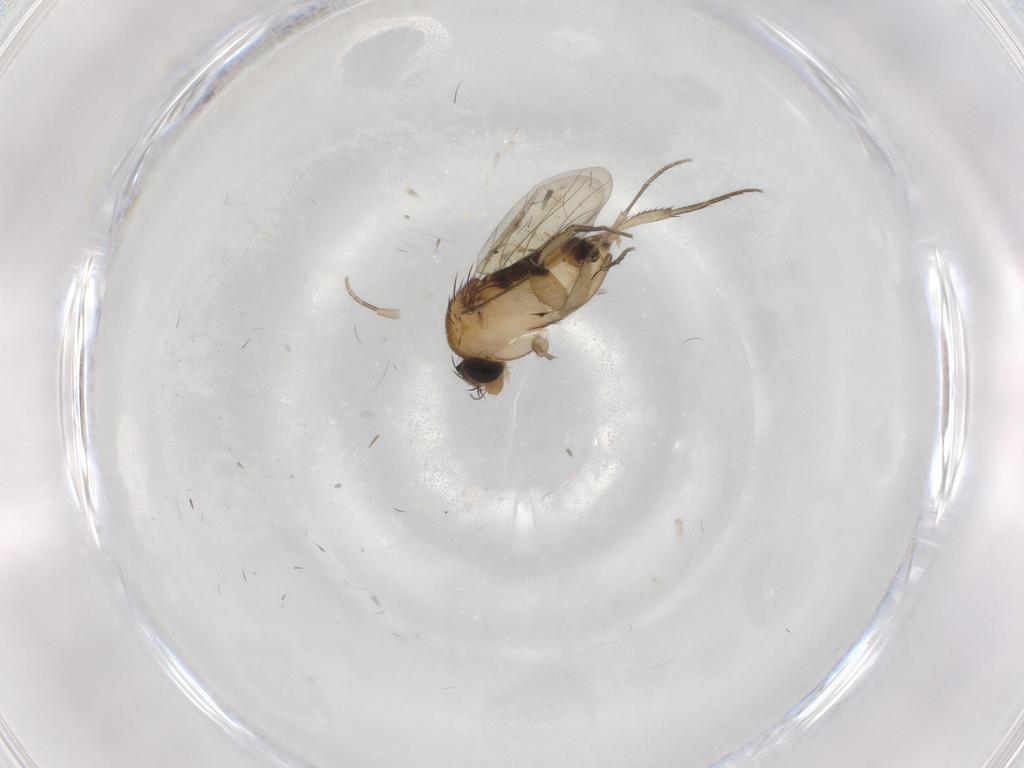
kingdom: Animalia
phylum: Arthropoda
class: Insecta
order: Diptera
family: Phoridae
